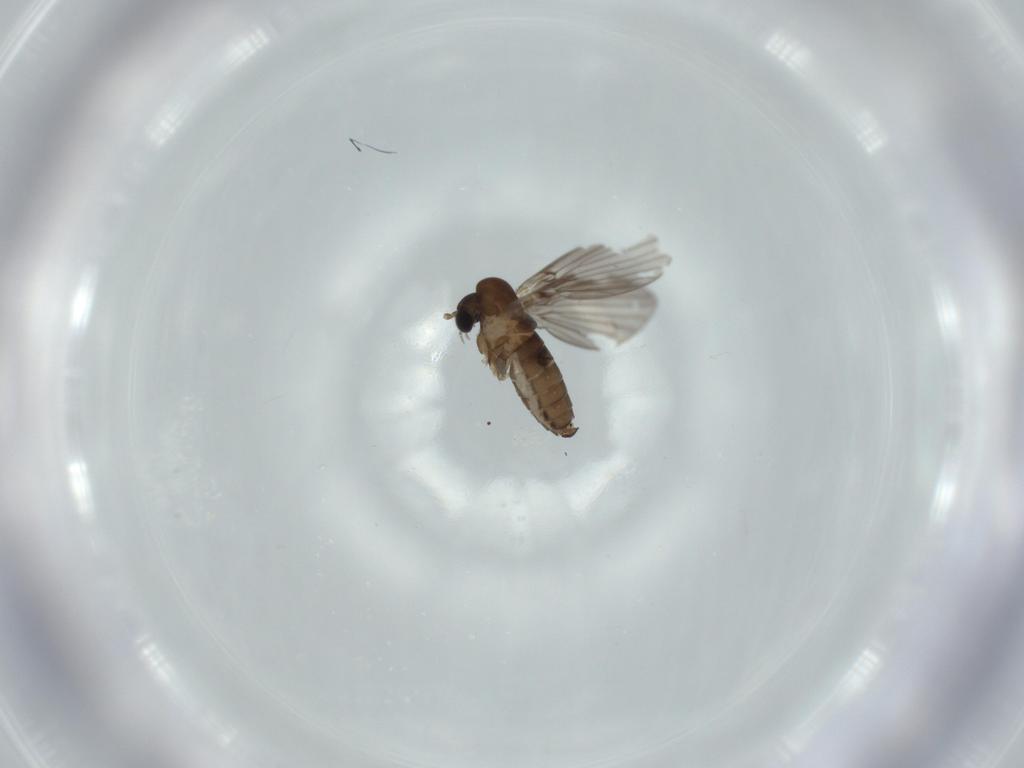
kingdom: Animalia
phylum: Arthropoda
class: Insecta
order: Diptera
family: Psychodidae
